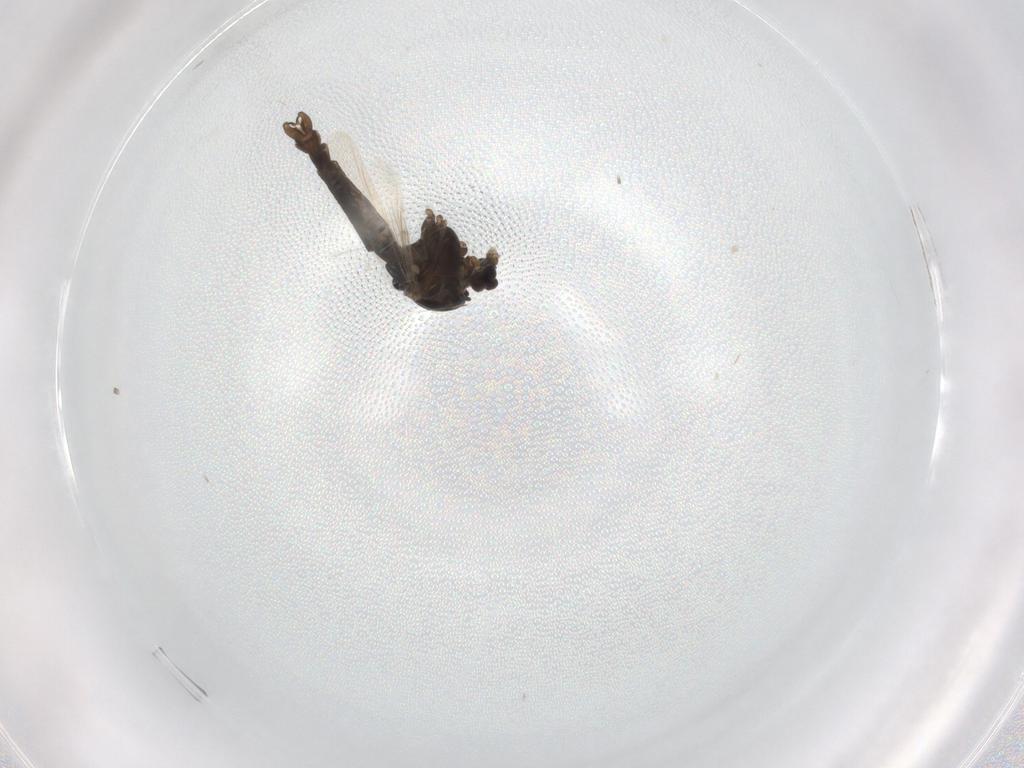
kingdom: Animalia
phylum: Arthropoda
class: Insecta
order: Diptera
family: Chironomidae
